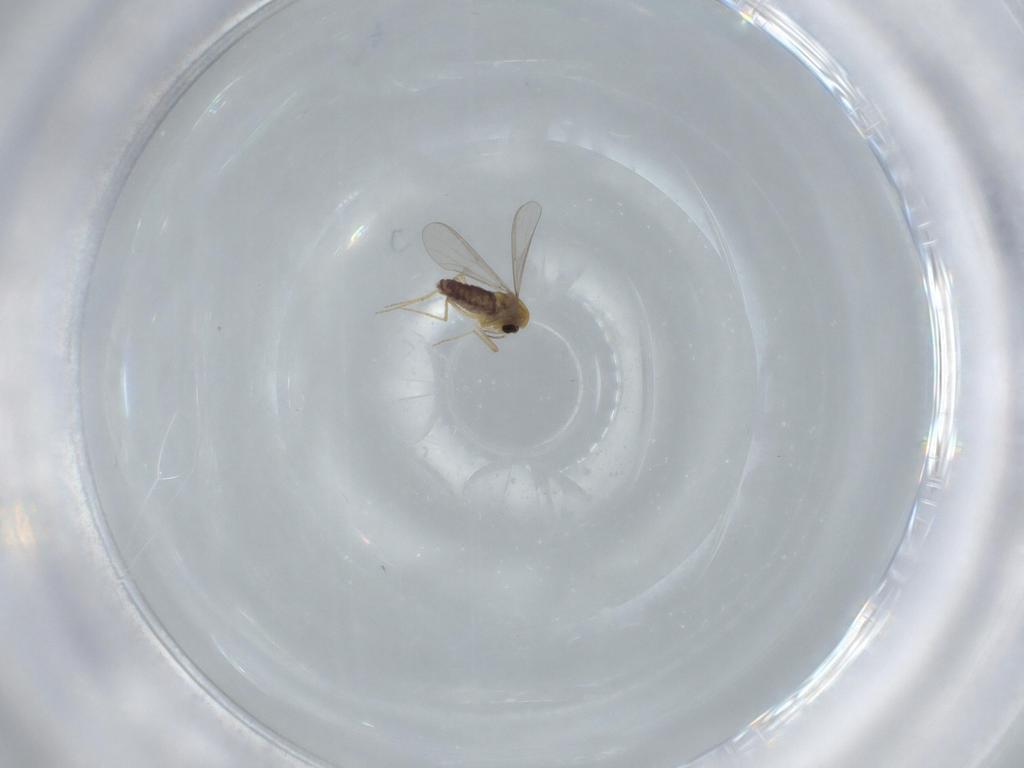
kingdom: Animalia
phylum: Arthropoda
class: Insecta
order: Diptera
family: Chironomidae
